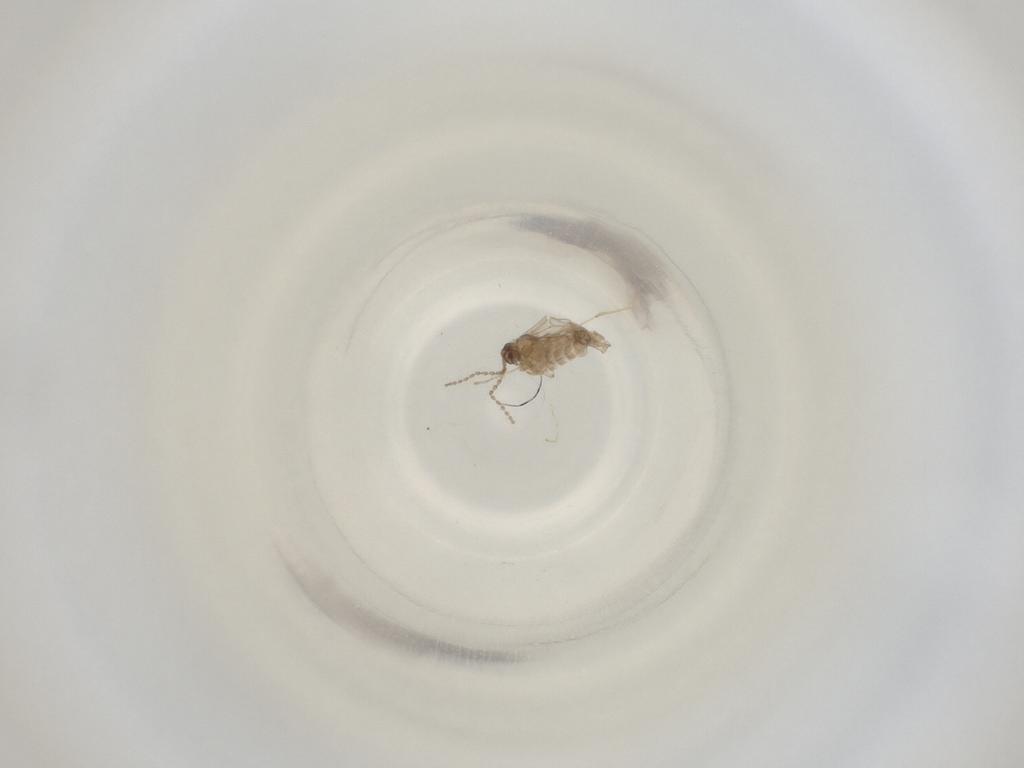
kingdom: Animalia
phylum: Arthropoda
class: Insecta
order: Diptera
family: Cecidomyiidae
